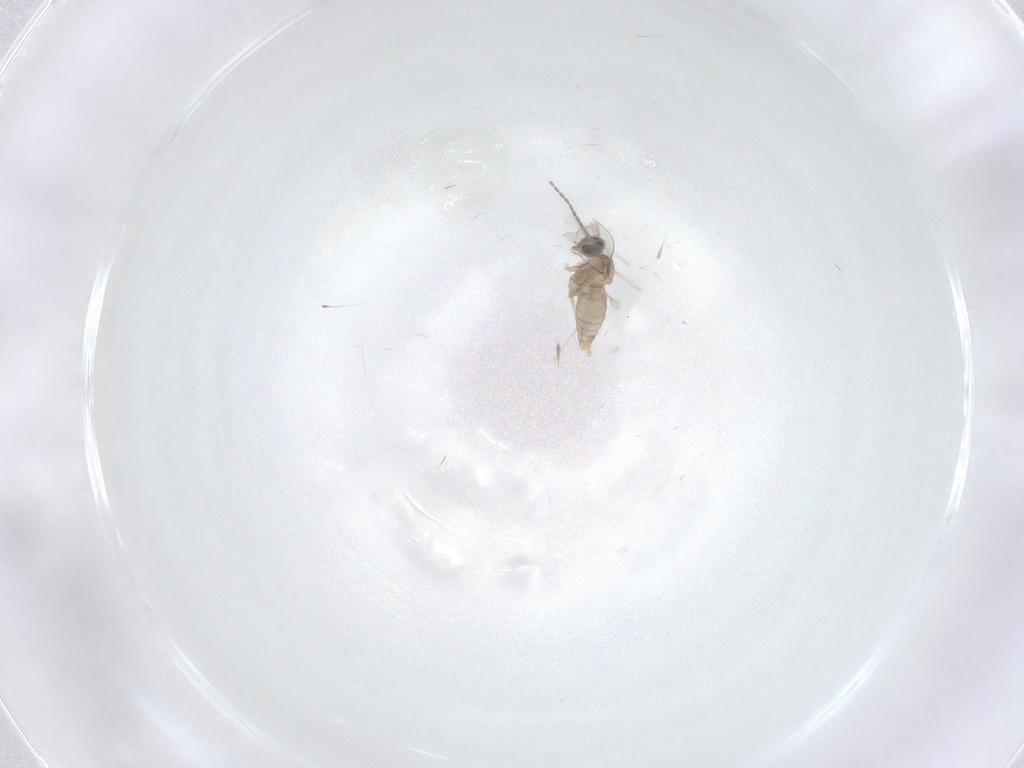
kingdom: Animalia
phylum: Arthropoda
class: Insecta
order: Diptera
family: Cecidomyiidae
